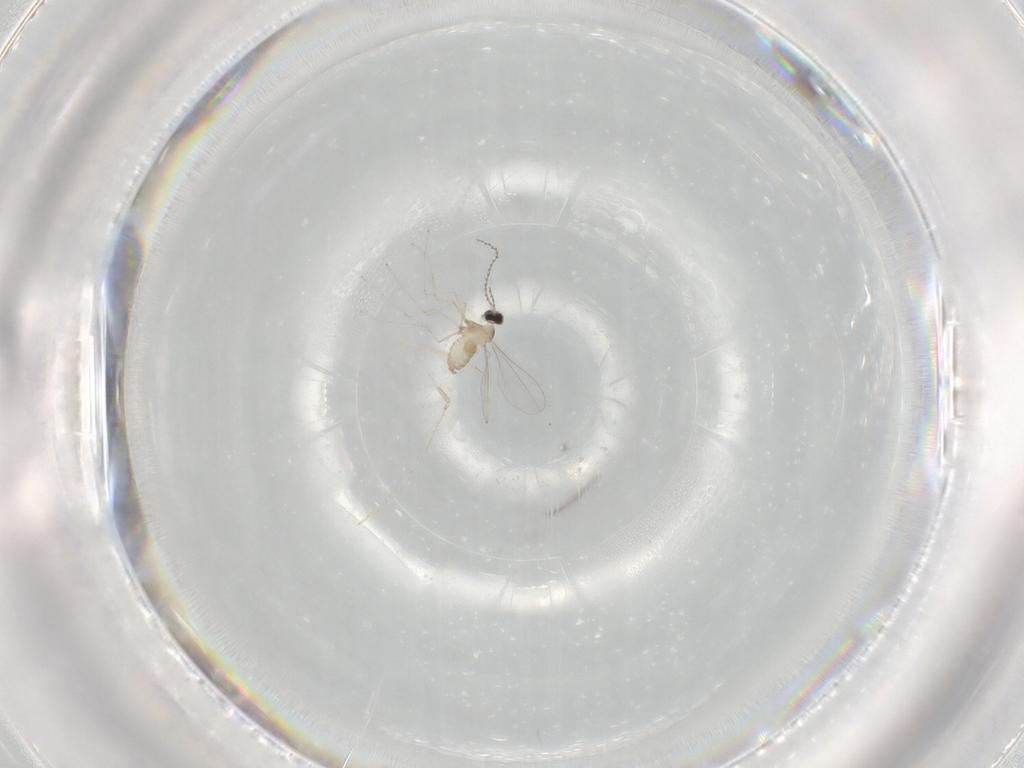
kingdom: Animalia
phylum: Arthropoda
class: Insecta
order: Diptera
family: Cecidomyiidae
